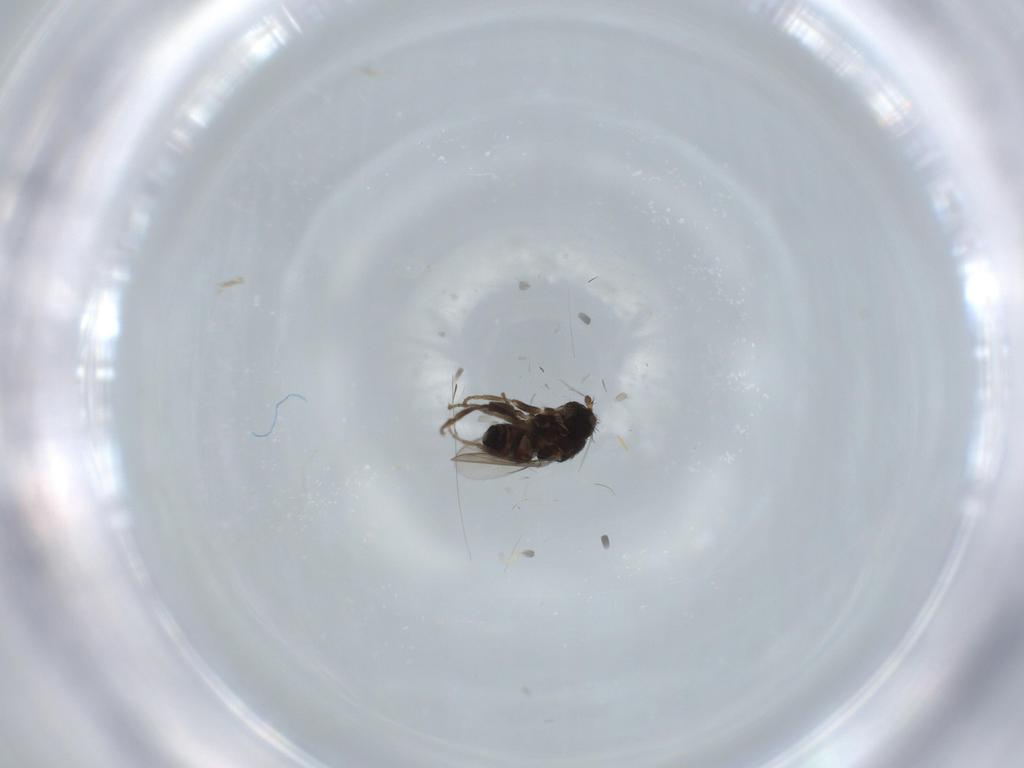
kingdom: Animalia
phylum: Arthropoda
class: Insecta
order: Diptera
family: Sphaeroceridae
